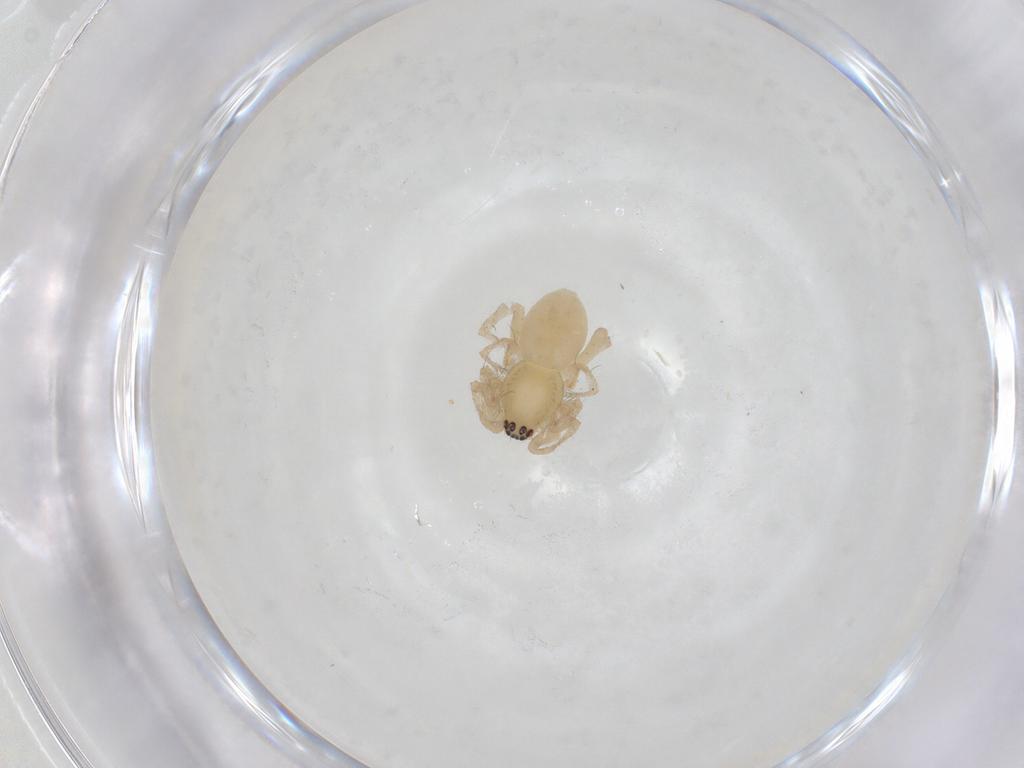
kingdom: Animalia
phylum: Arthropoda
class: Arachnida
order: Araneae
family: Anyphaenidae
